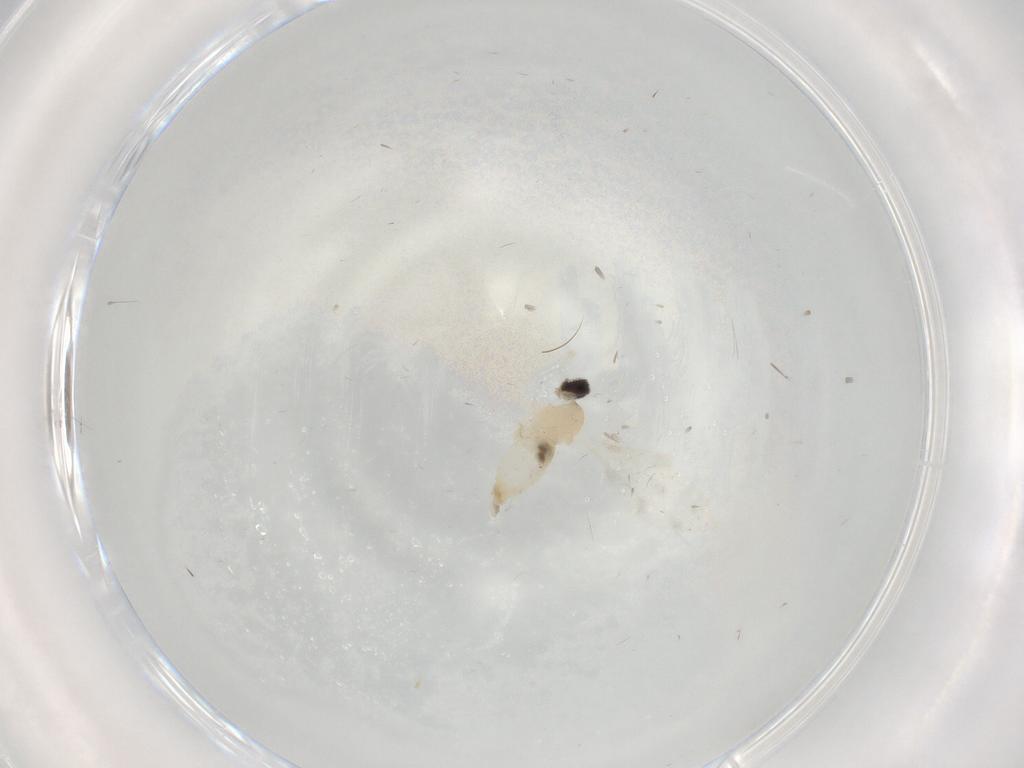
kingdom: Animalia
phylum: Arthropoda
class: Insecta
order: Diptera
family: Cecidomyiidae
